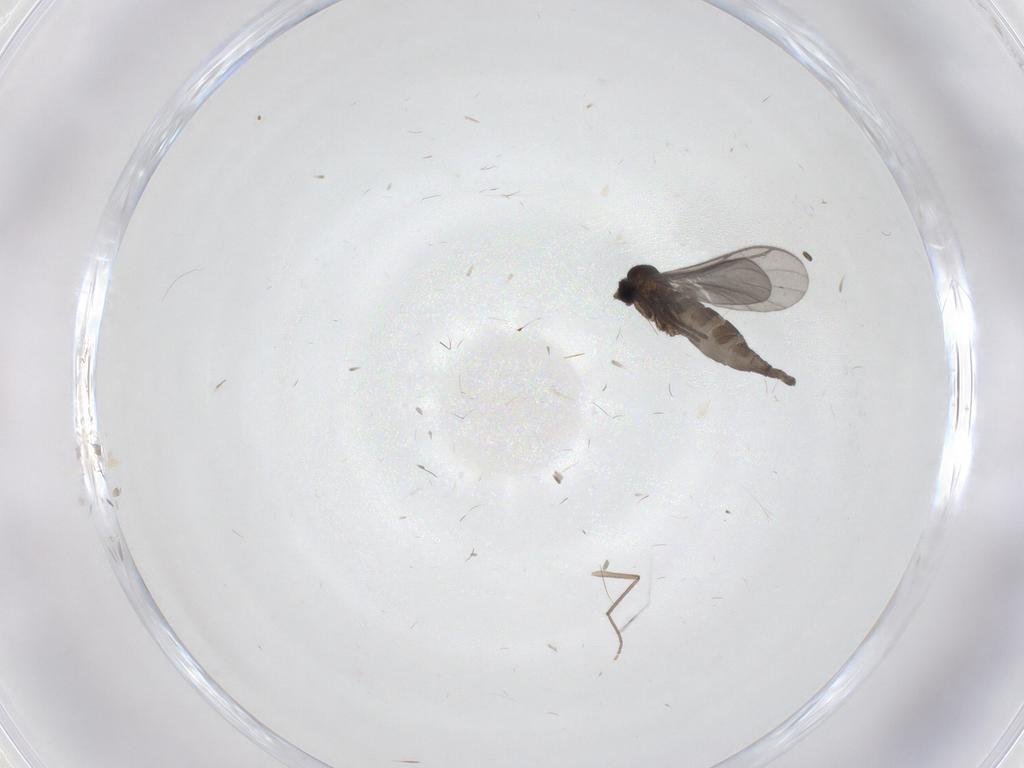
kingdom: Animalia
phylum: Arthropoda
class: Insecta
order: Diptera
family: Chironomidae
